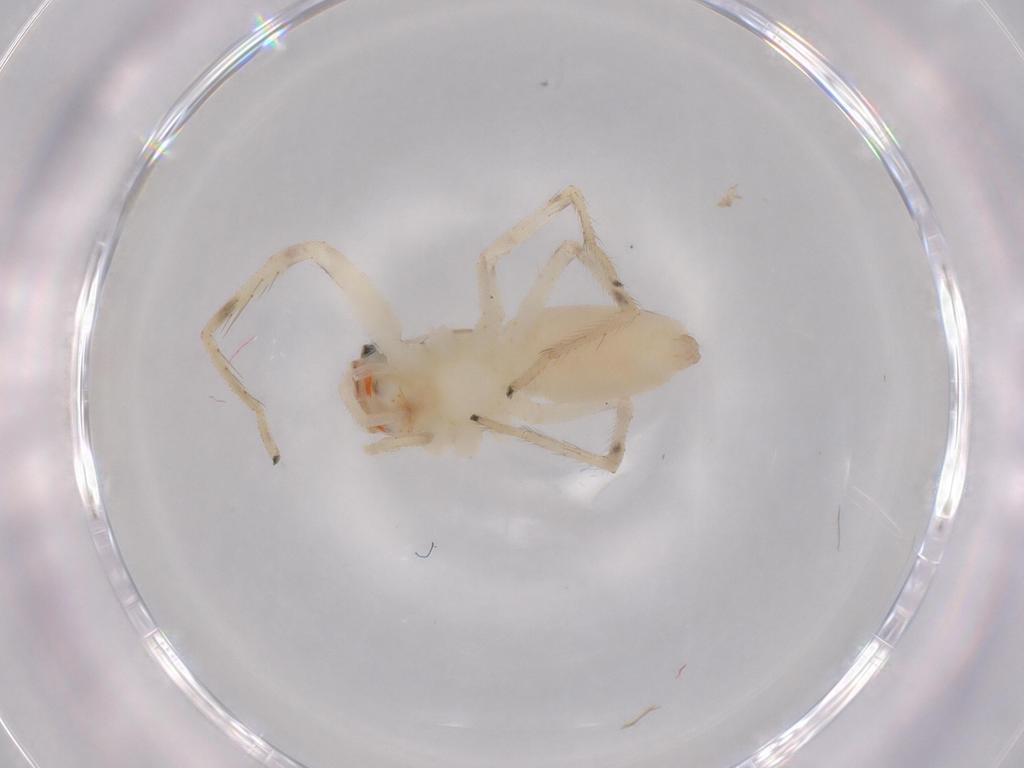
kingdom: Animalia
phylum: Arthropoda
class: Arachnida
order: Araneae
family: Salticidae
